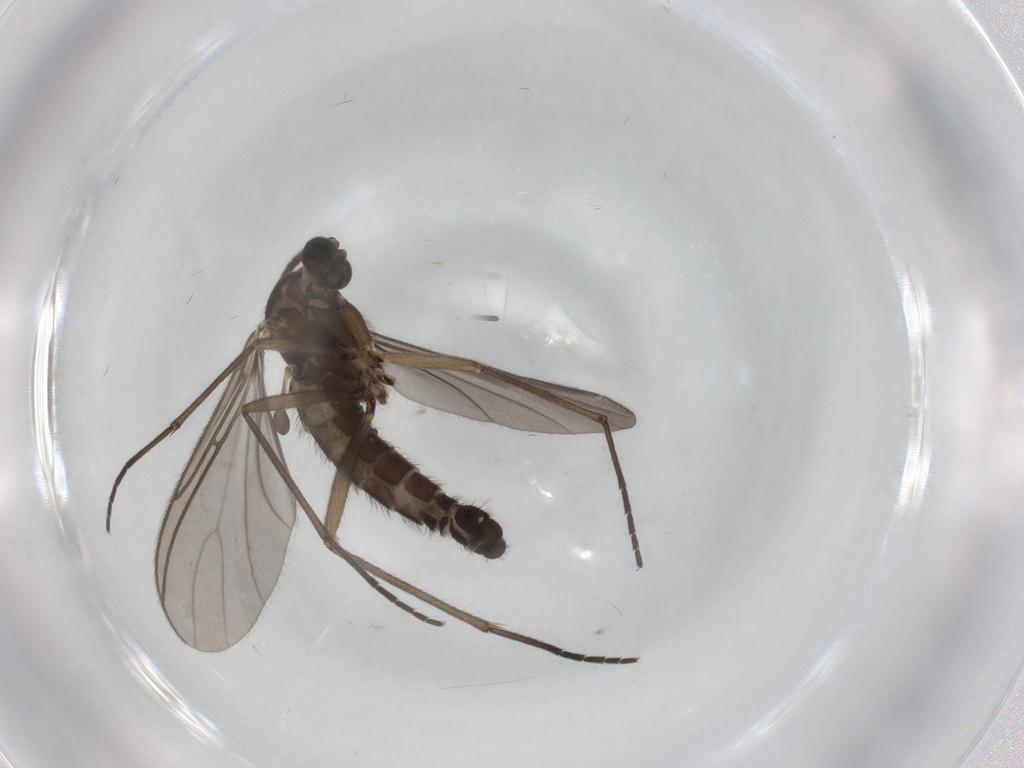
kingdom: Animalia
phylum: Arthropoda
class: Insecta
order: Diptera
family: Sciaridae
